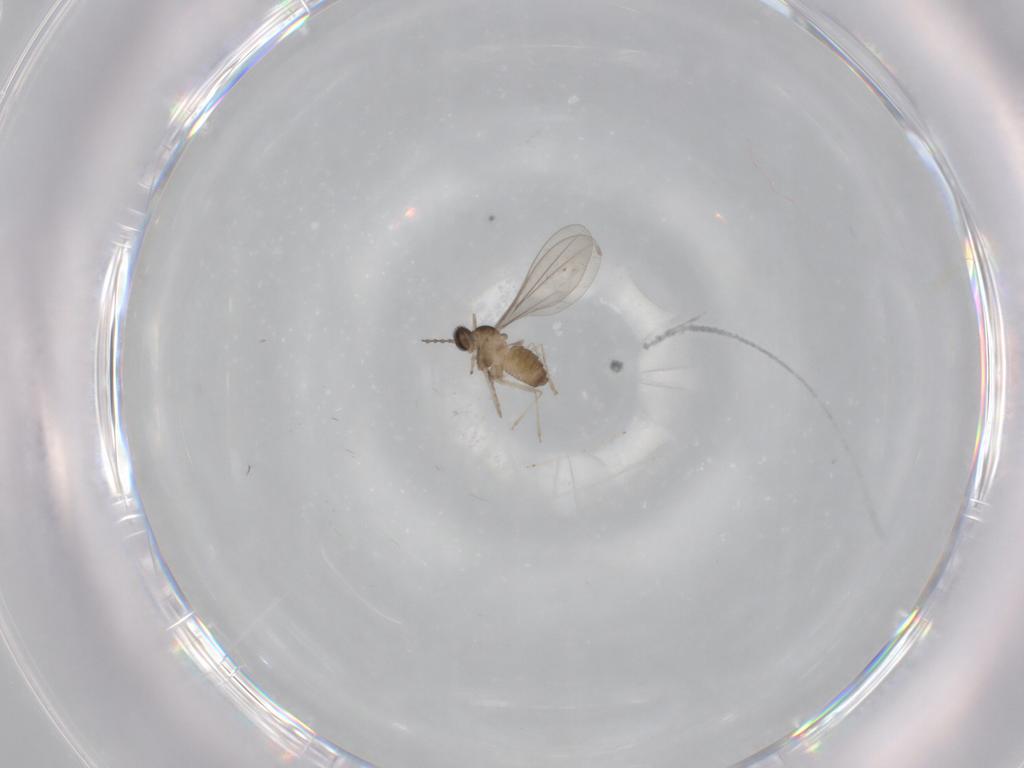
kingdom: Animalia
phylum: Arthropoda
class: Insecta
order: Diptera
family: Cecidomyiidae
